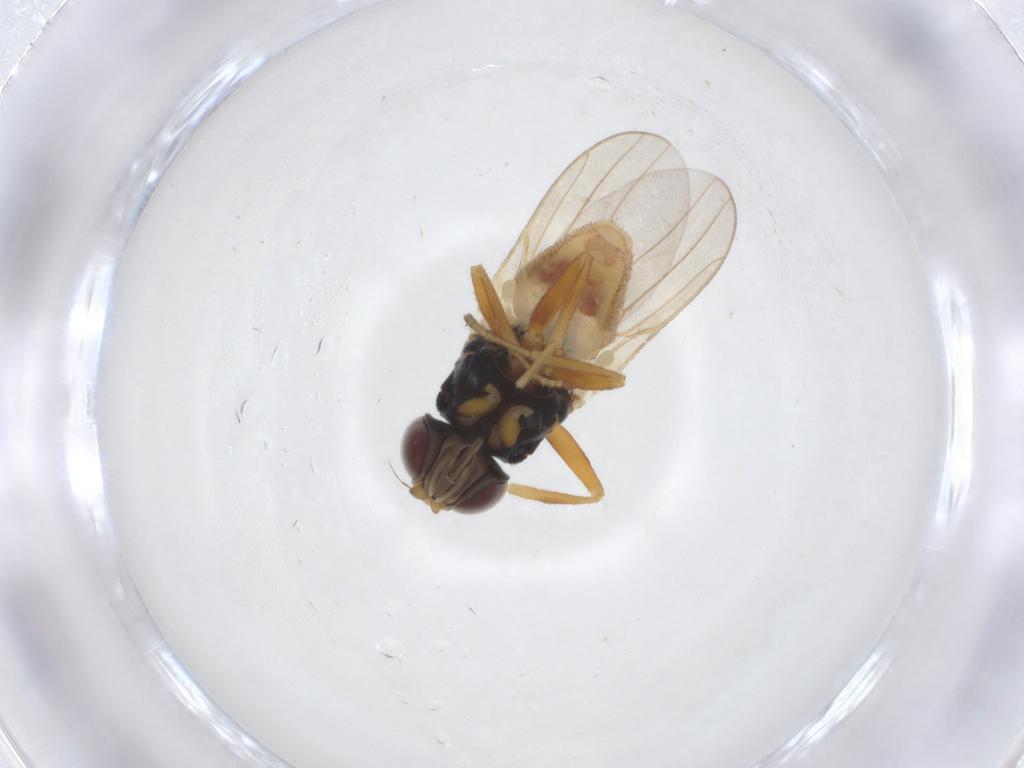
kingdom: Animalia
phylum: Arthropoda
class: Insecta
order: Diptera
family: Chloropidae
